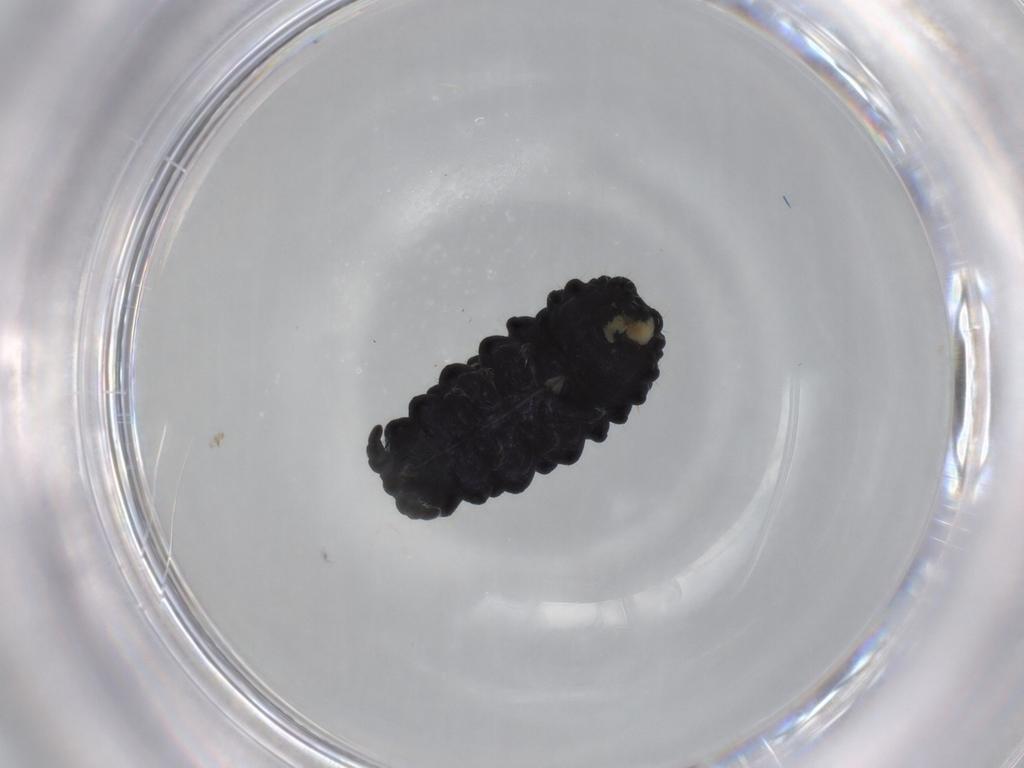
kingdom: Animalia
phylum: Arthropoda
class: Collembola
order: Poduromorpha
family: Neanuridae
